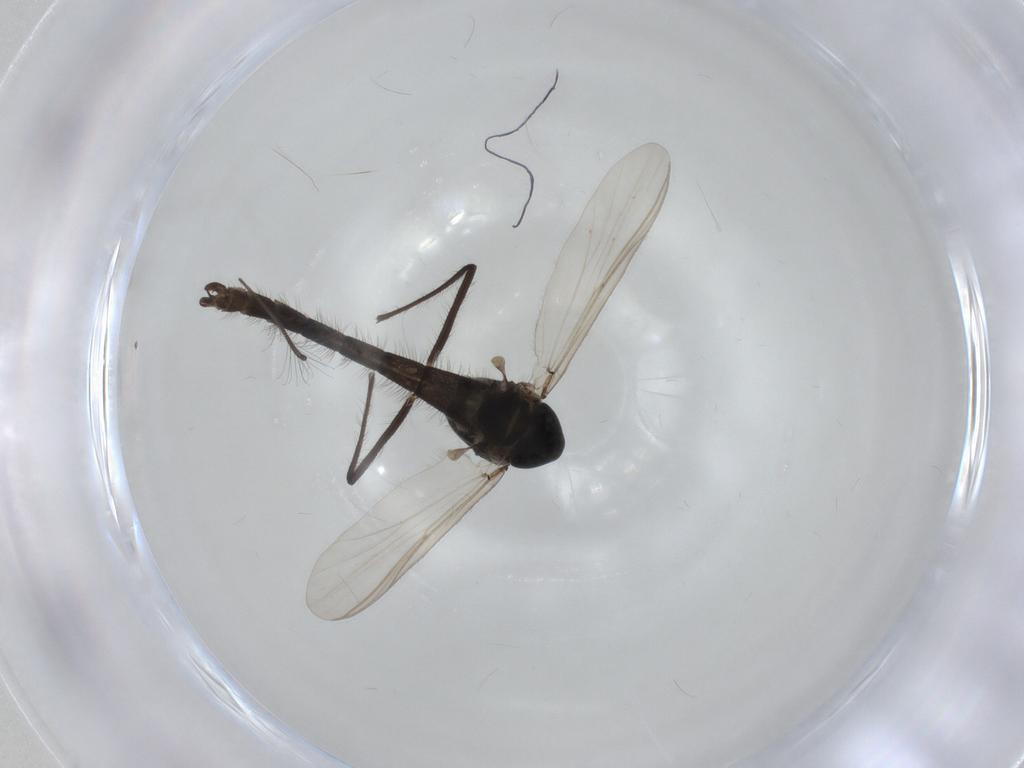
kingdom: Animalia
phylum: Arthropoda
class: Insecta
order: Diptera
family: Chironomidae
